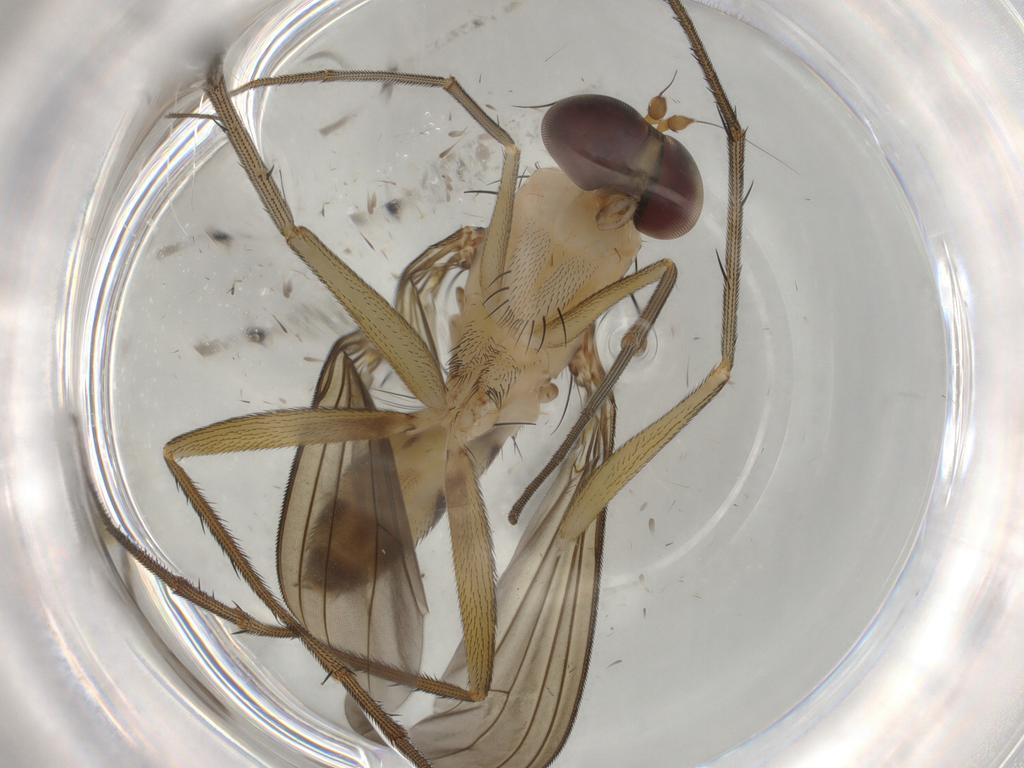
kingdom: Animalia
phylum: Arthropoda
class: Insecta
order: Diptera
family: Dolichopodidae
